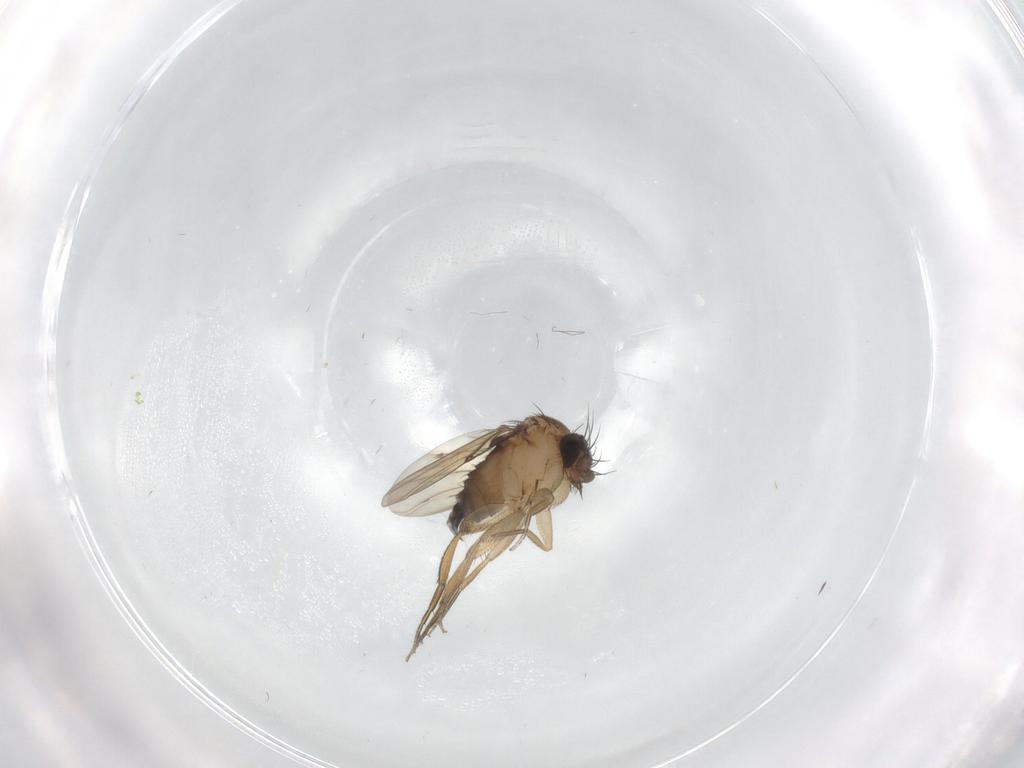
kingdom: Animalia
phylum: Arthropoda
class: Insecta
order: Diptera
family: Phoridae
